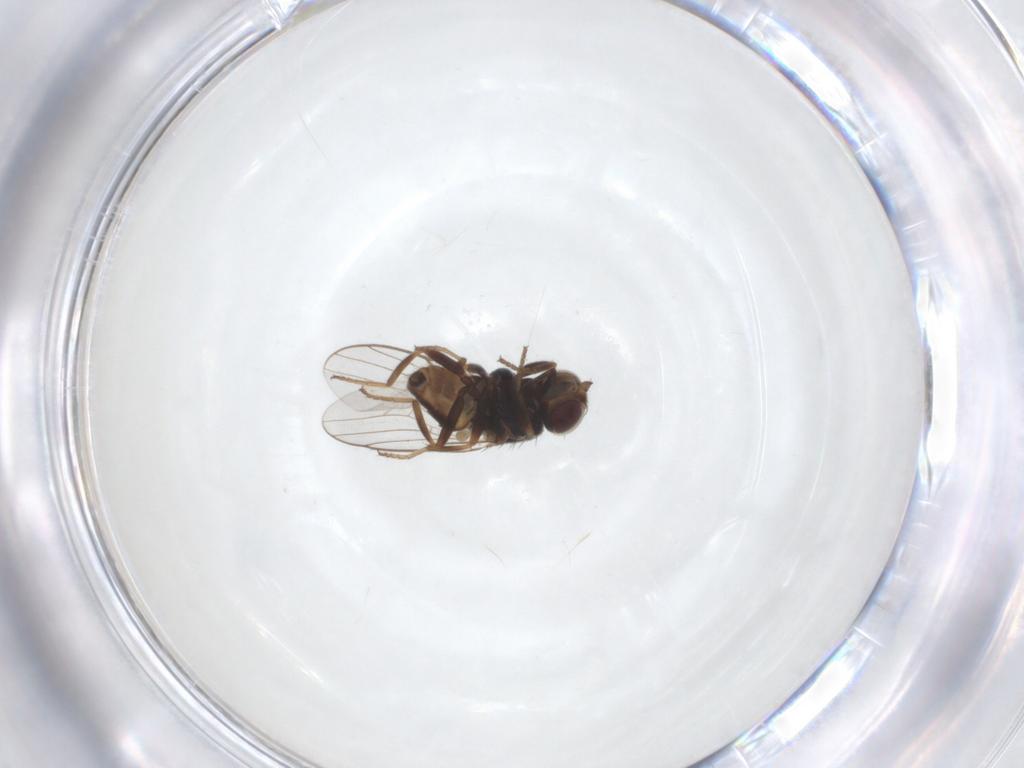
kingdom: Animalia
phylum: Arthropoda
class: Insecta
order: Diptera
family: Chloropidae
